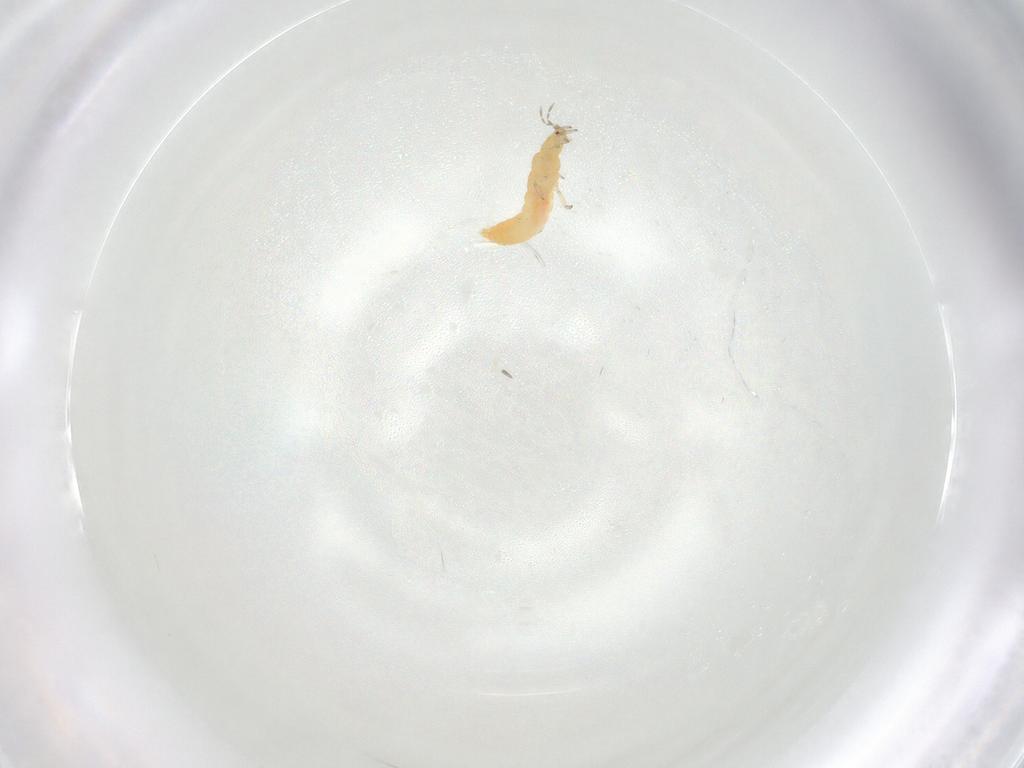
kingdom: Animalia
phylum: Arthropoda
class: Insecta
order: Thysanoptera
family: Aeolothripidae
